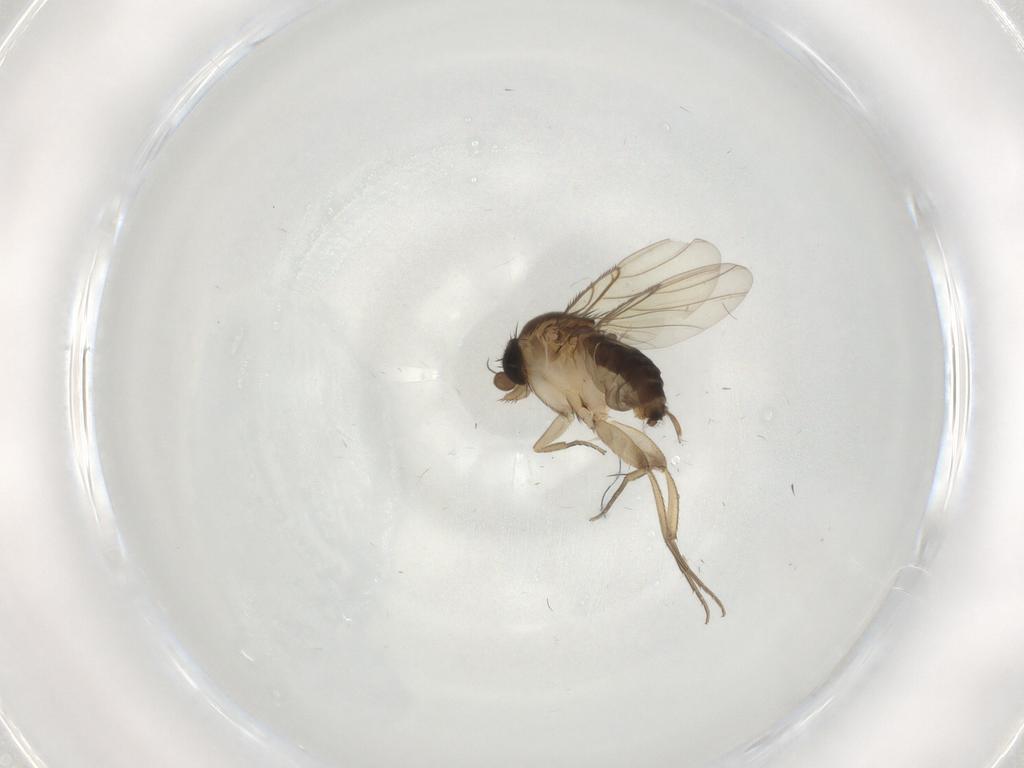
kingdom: Animalia
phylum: Arthropoda
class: Insecta
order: Diptera
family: Phoridae
